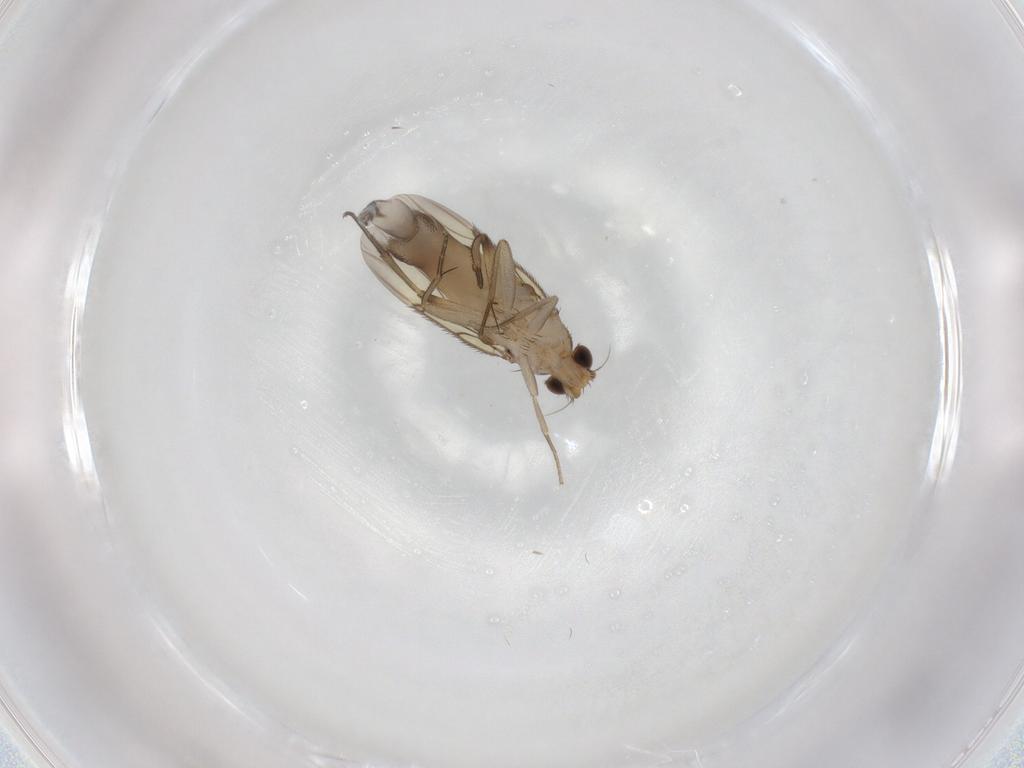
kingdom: Animalia
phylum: Arthropoda
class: Insecta
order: Diptera
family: Phoridae
